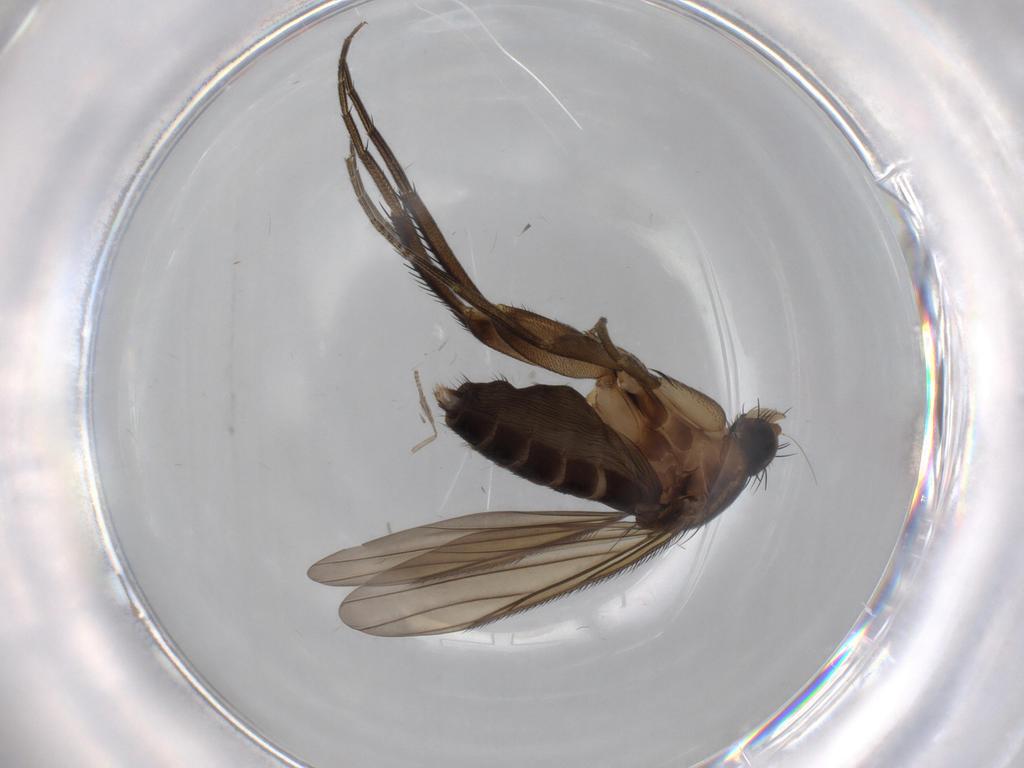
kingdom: Animalia
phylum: Arthropoda
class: Insecta
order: Diptera
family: Phoridae
